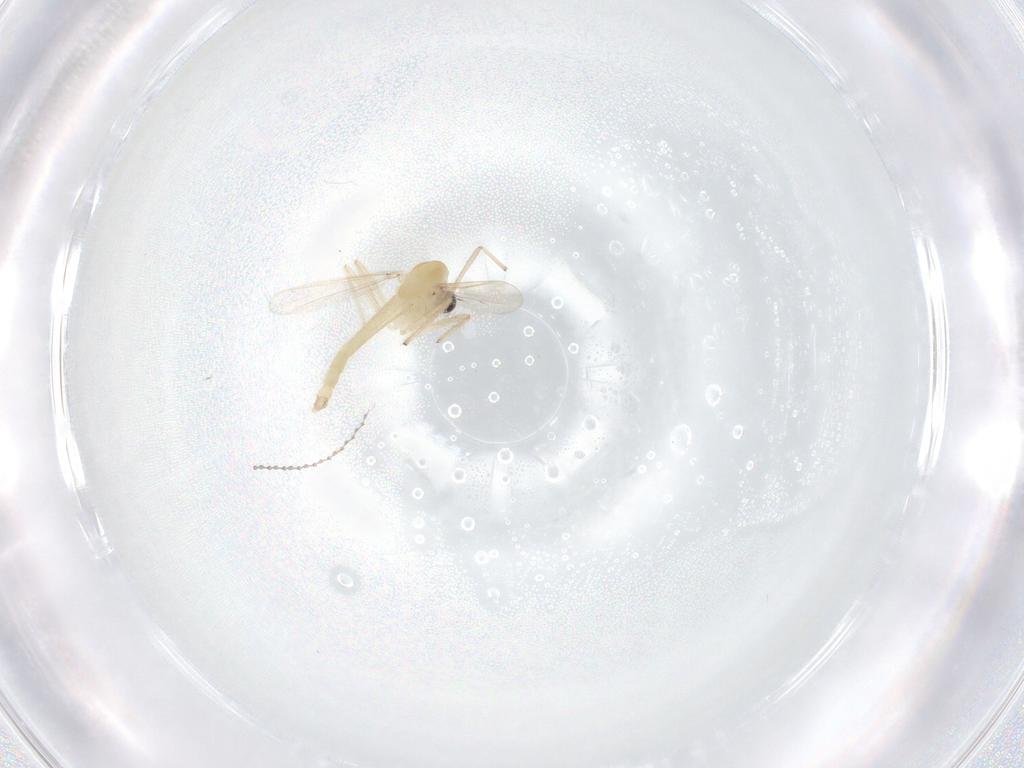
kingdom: Animalia
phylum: Arthropoda
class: Insecta
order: Diptera
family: Chironomidae
